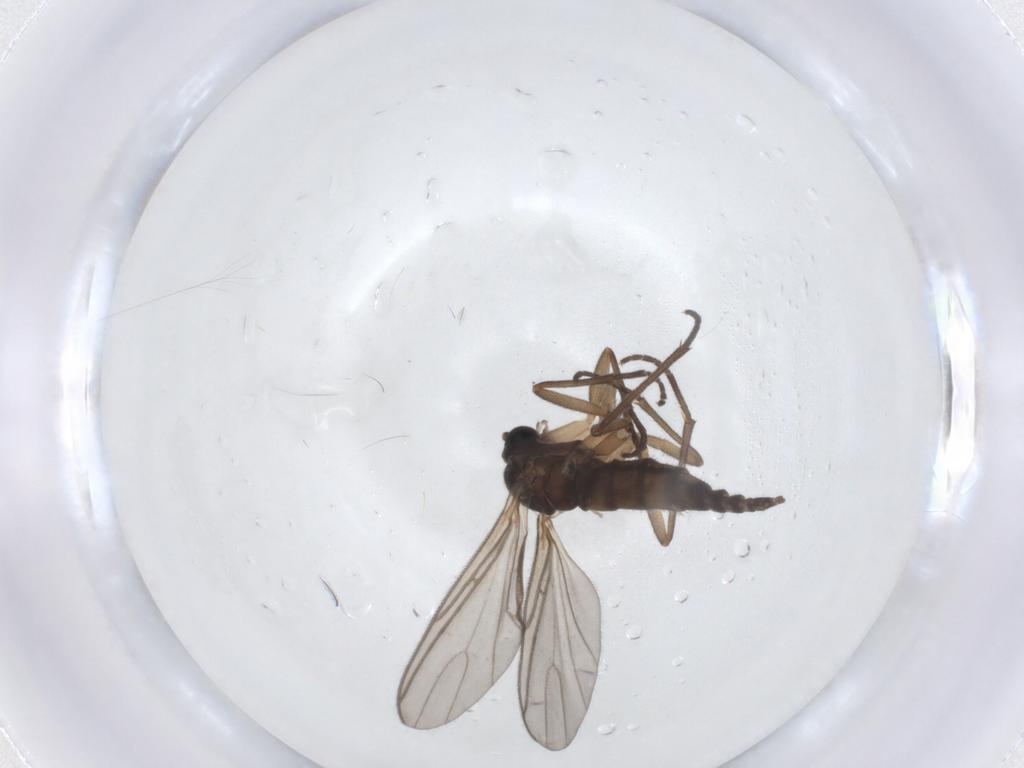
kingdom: Animalia
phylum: Arthropoda
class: Insecta
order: Diptera
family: Sciaridae
